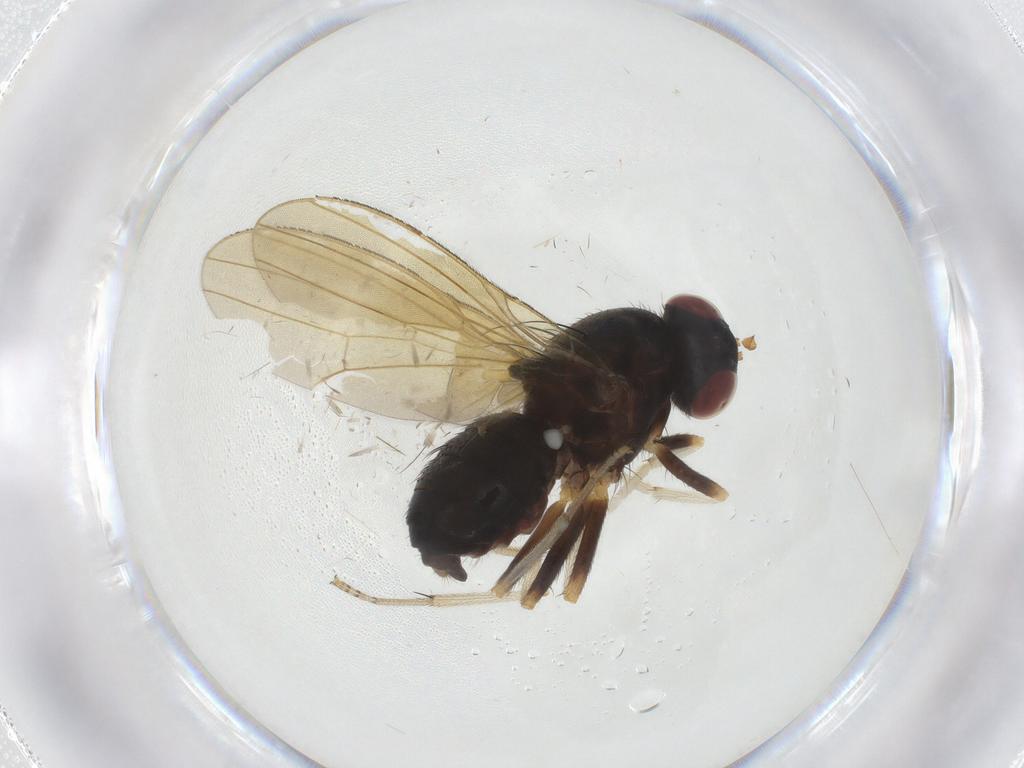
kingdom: Animalia
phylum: Arthropoda
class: Insecta
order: Diptera
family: Lauxaniidae
